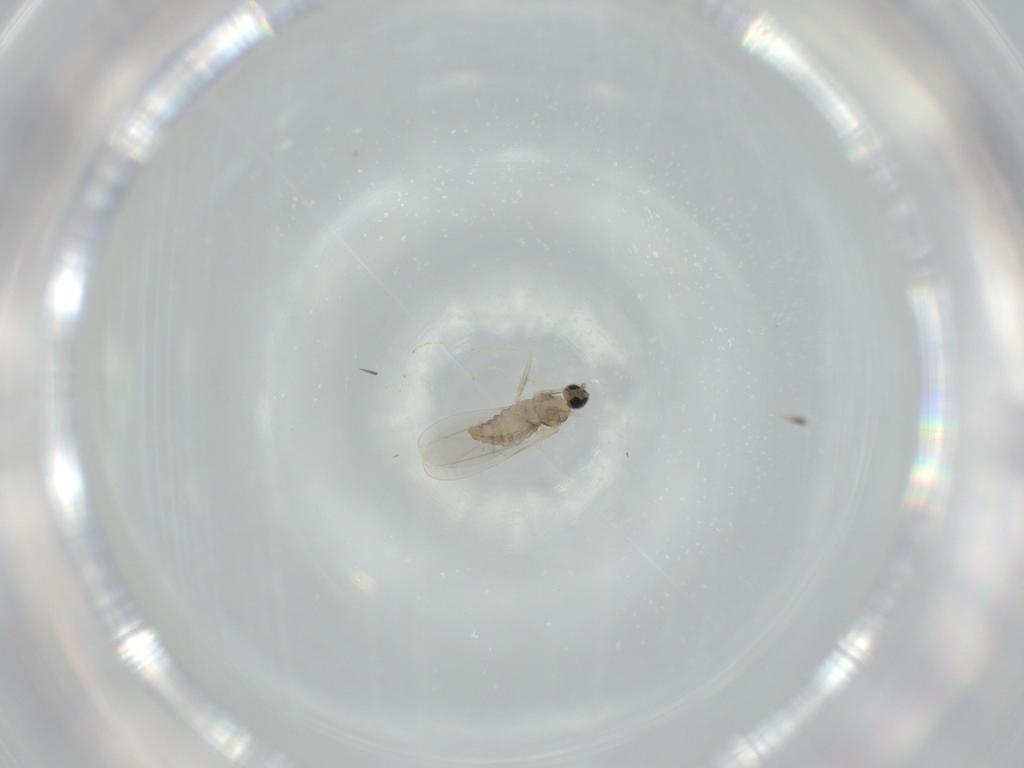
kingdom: Animalia
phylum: Arthropoda
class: Insecta
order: Diptera
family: Cecidomyiidae
